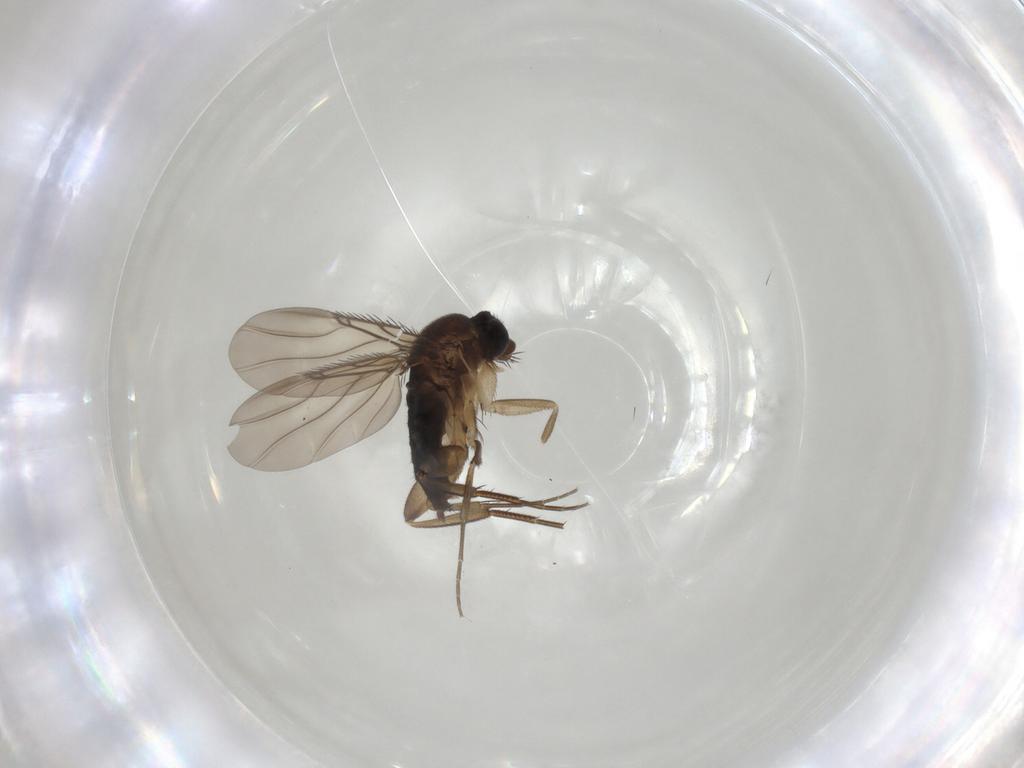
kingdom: Animalia
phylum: Arthropoda
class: Insecta
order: Diptera
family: Phoridae
